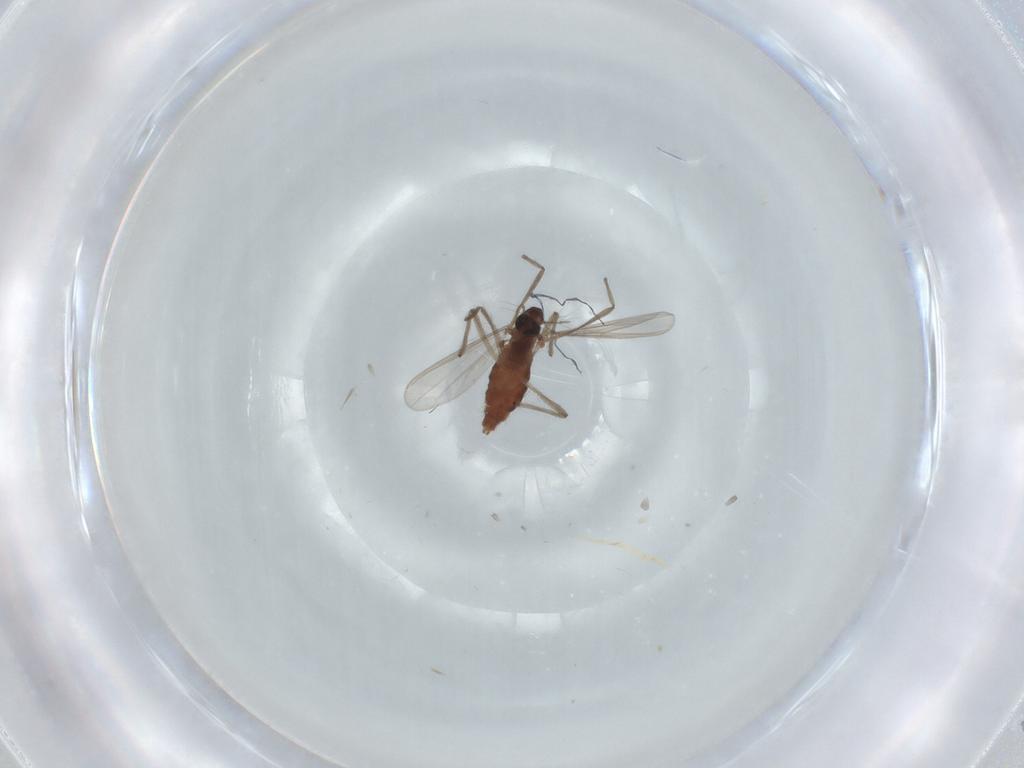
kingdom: Animalia
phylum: Arthropoda
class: Insecta
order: Diptera
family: Chironomidae
